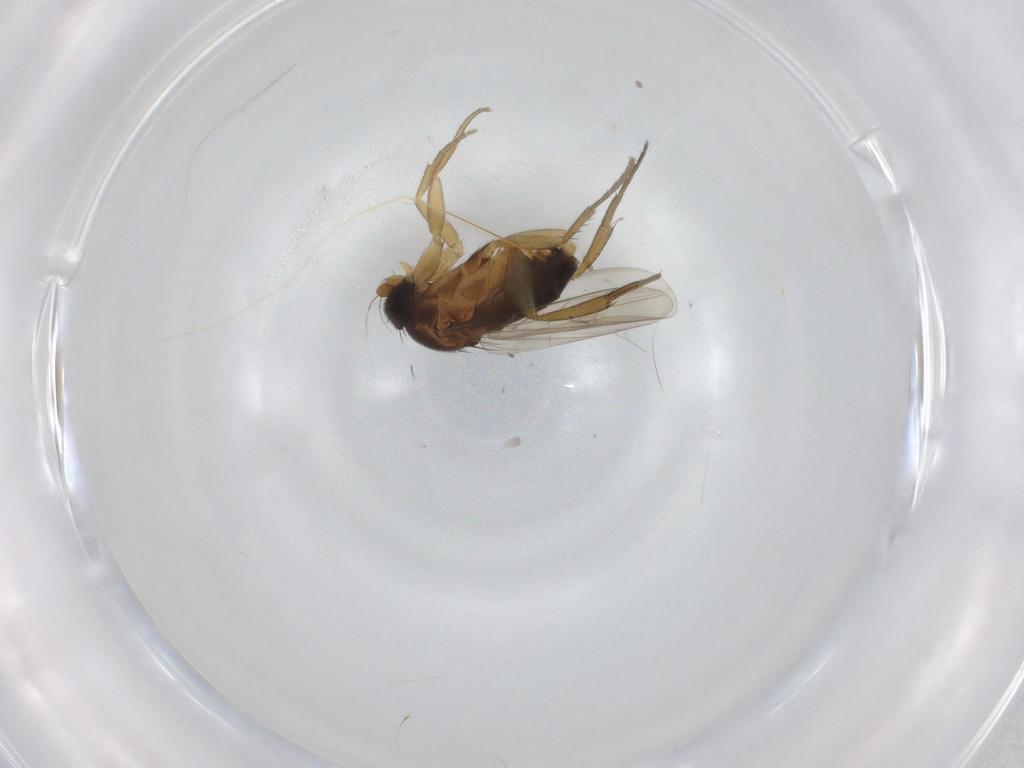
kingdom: Animalia
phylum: Arthropoda
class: Insecta
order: Diptera
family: Phoridae
